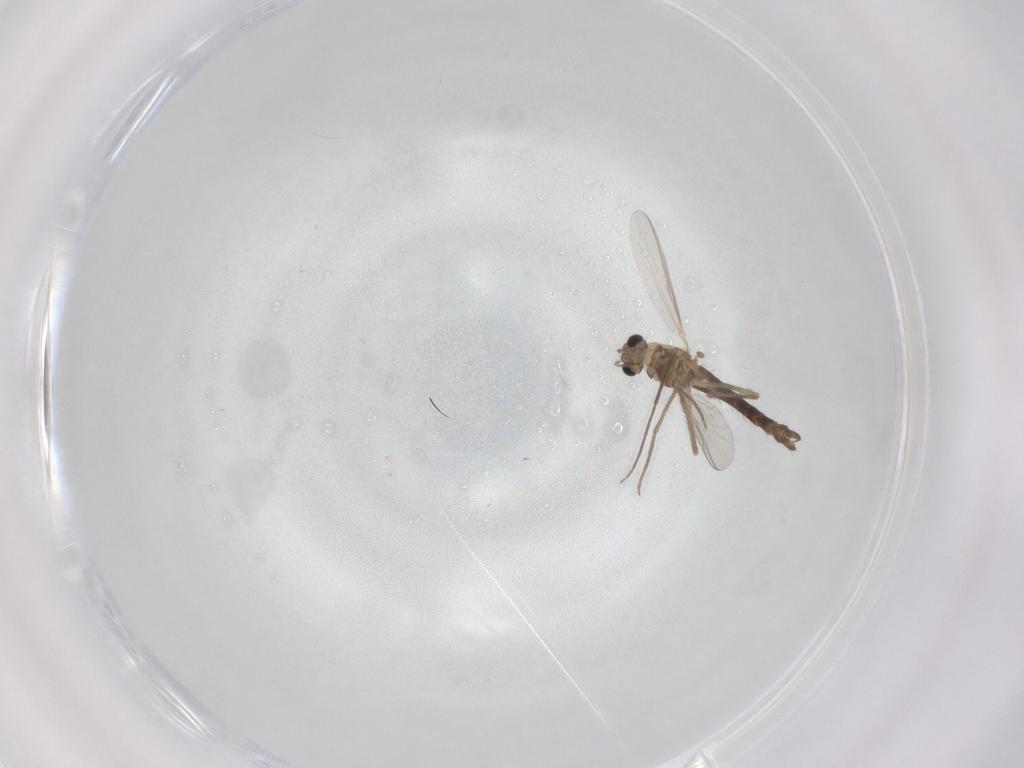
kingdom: Animalia
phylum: Arthropoda
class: Insecta
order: Diptera
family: Chironomidae
